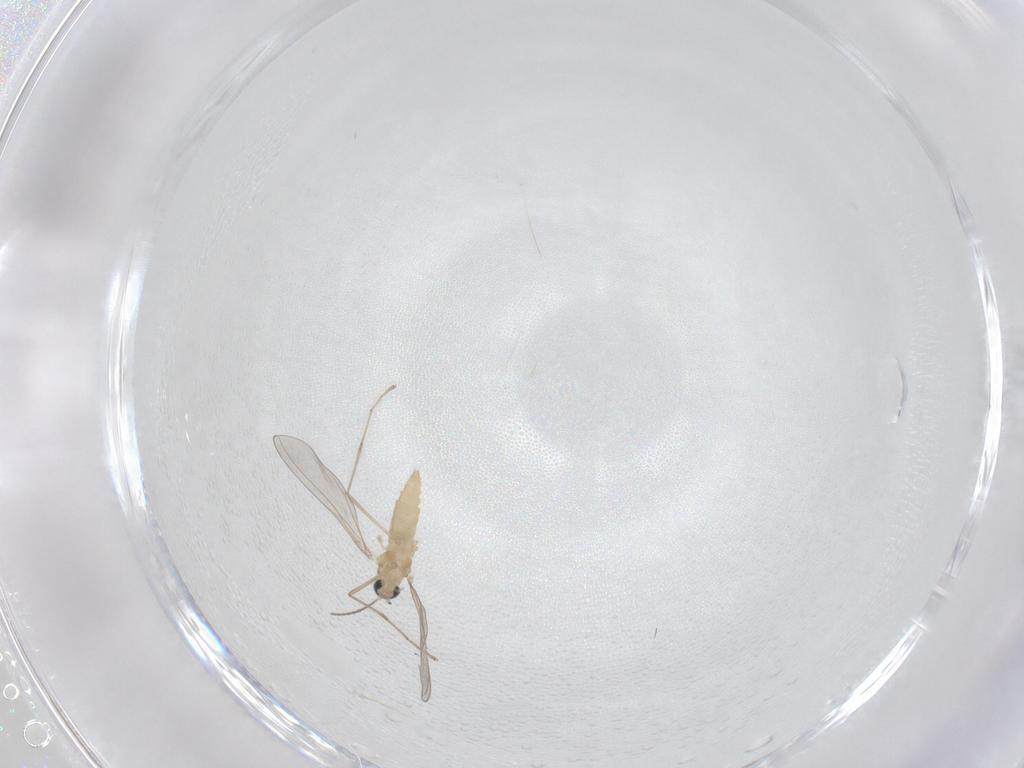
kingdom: Animalia
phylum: Arthropoda
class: Insecta
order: Diptera
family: Cecidomyiidae
